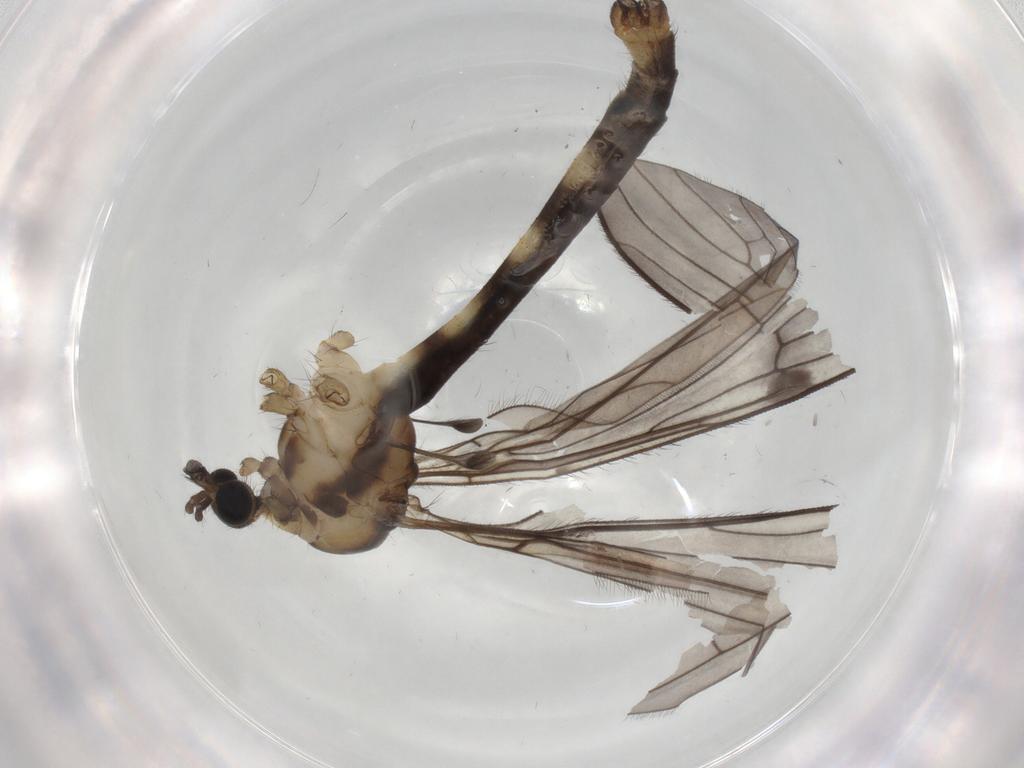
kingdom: Animalia
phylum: Arthropoda
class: Insecta
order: Diptera
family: Limoniidae
